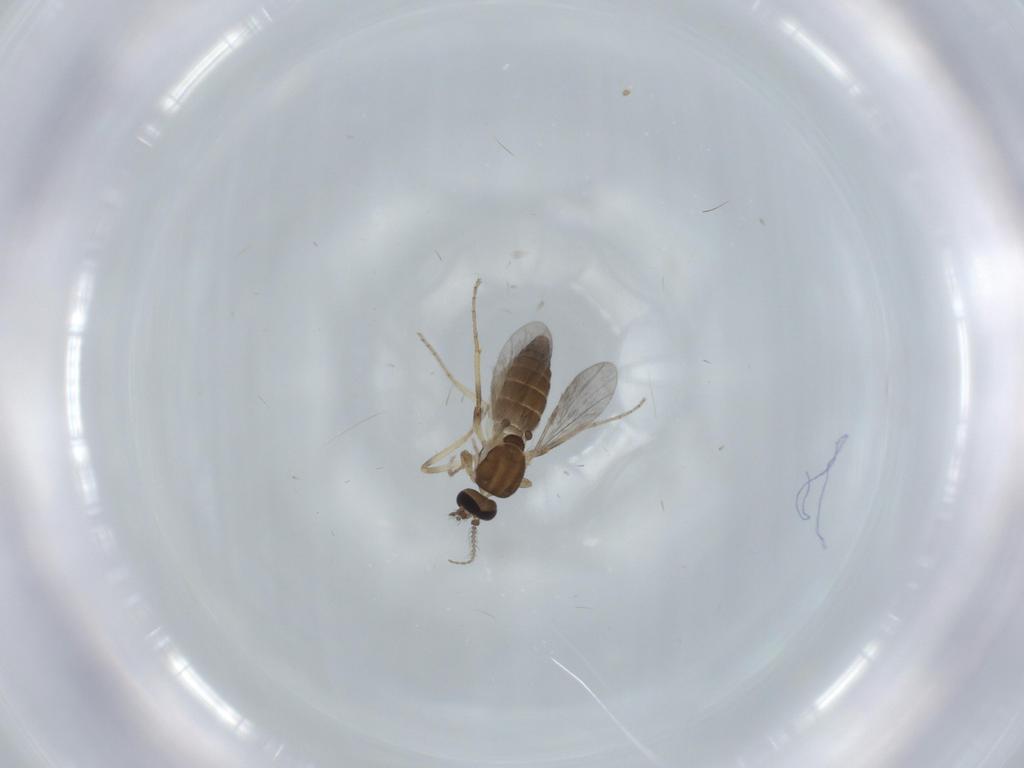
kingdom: Animalia
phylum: Arthropoda
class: Insecta
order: Diptera
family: Ceratopogonidae
